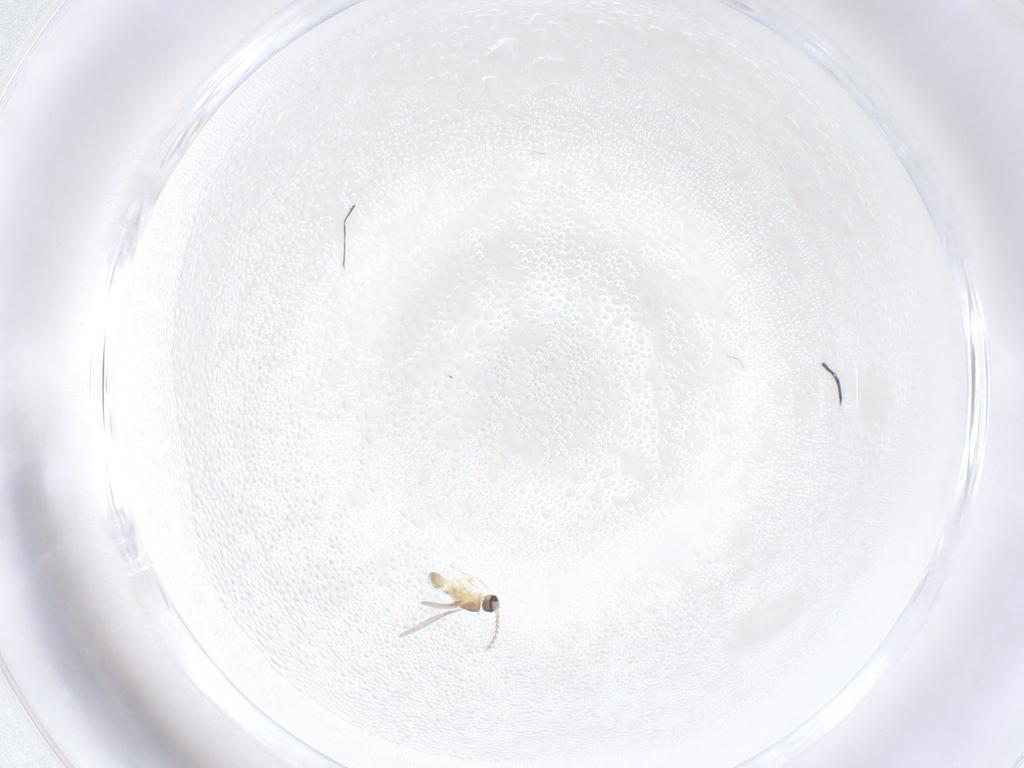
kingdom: Animalia
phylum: Arthropoda
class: Insecta
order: Diptera
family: Cecidomyiidae
